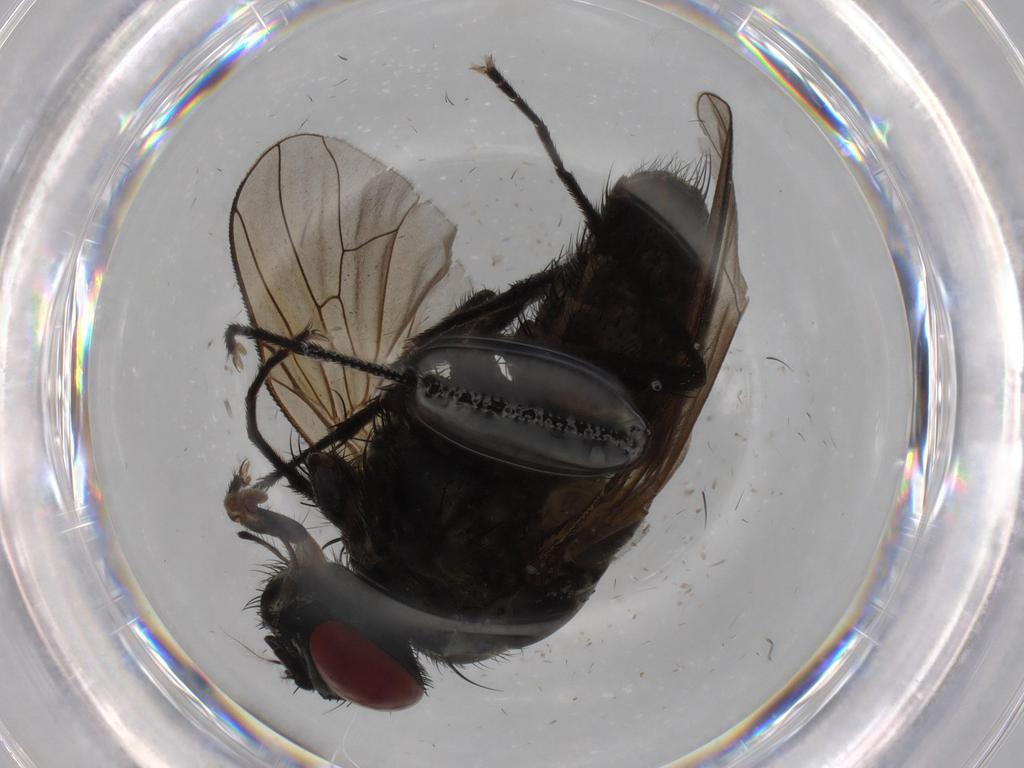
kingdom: Animalia
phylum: Arthropoda
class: Insecta
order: Diptera
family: Muscidae
